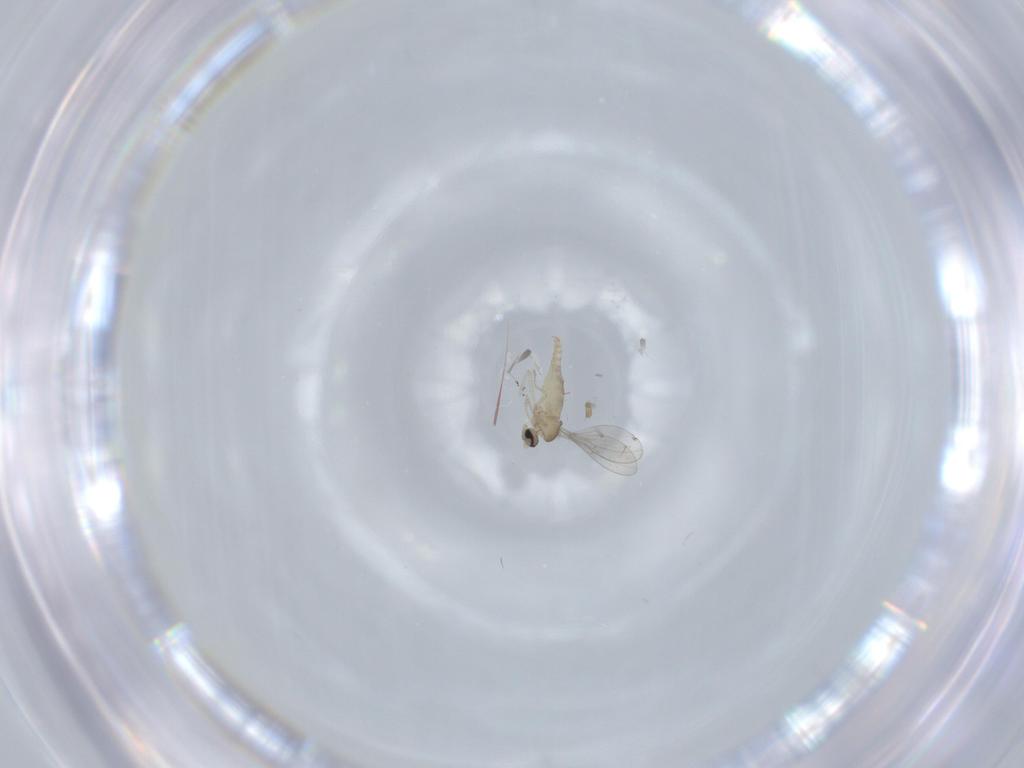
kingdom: Animalia
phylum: Arthropoda
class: Insecta
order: Diptera
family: Cecidomyiidae
